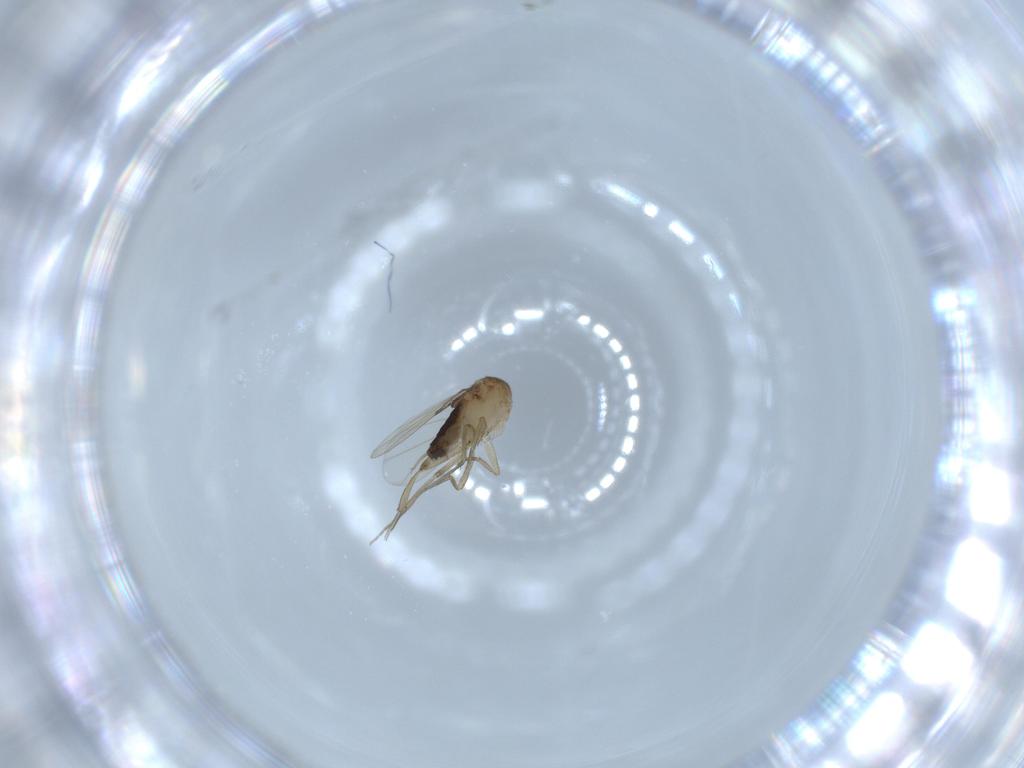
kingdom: Animalia
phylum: Arthropoda
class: Insecta
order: Diptera
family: Phoridae
